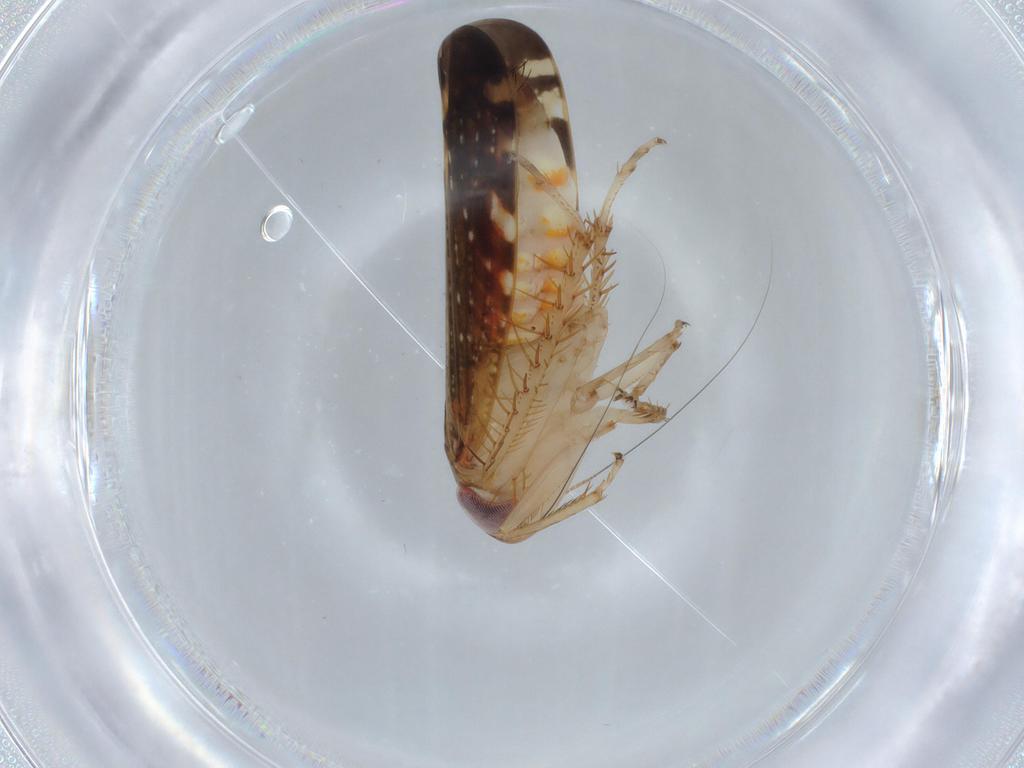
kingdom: Animalia
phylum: Arthropoda
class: Insecta
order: Hemiptera
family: Cicadellidae
